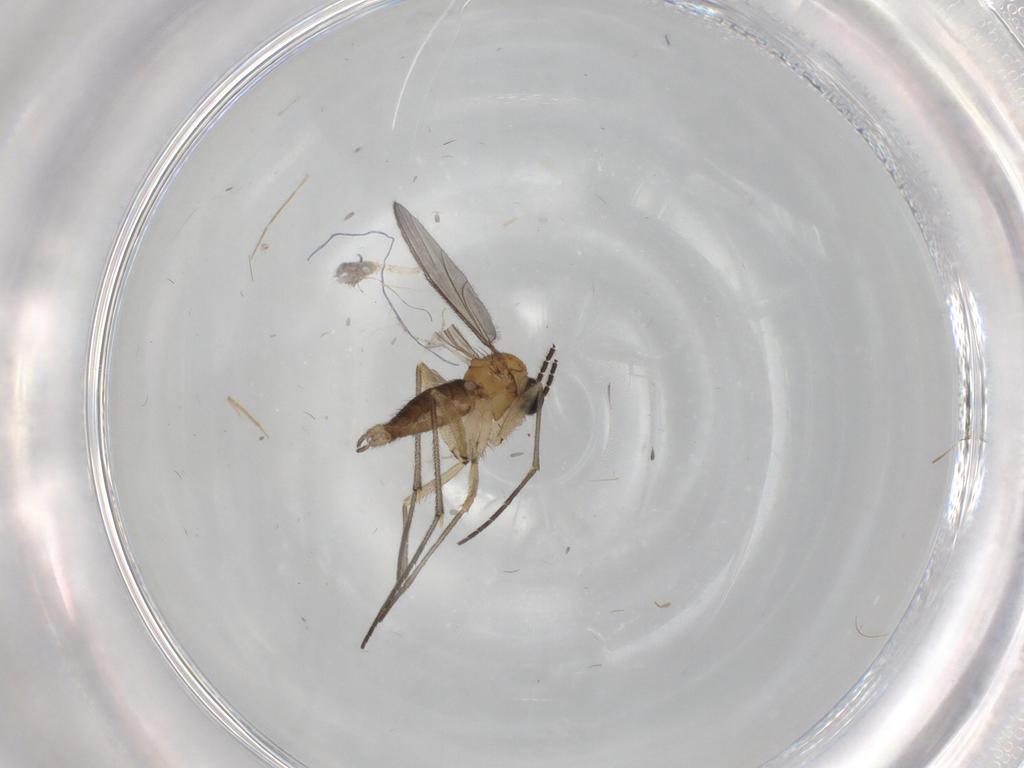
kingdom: Animalia
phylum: Arthropoda
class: Insecta
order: Diptera
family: Sciaridae
